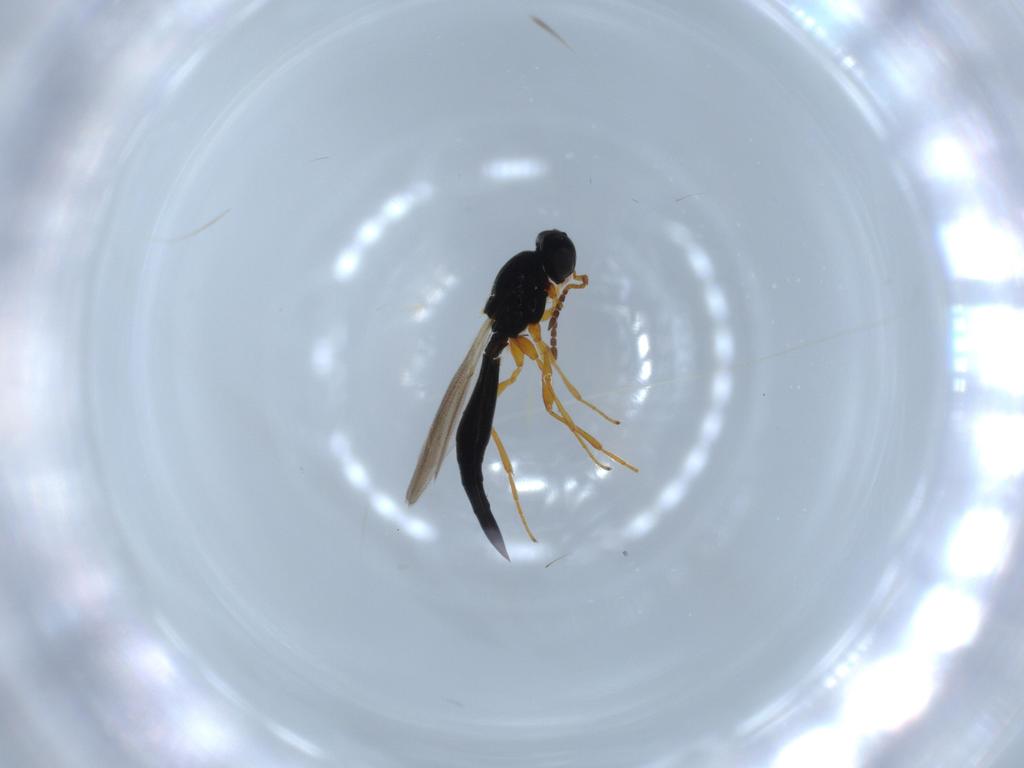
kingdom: Animalia
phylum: Arthropoda
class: Insecta
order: Hymenoptera
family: Platygastridae
